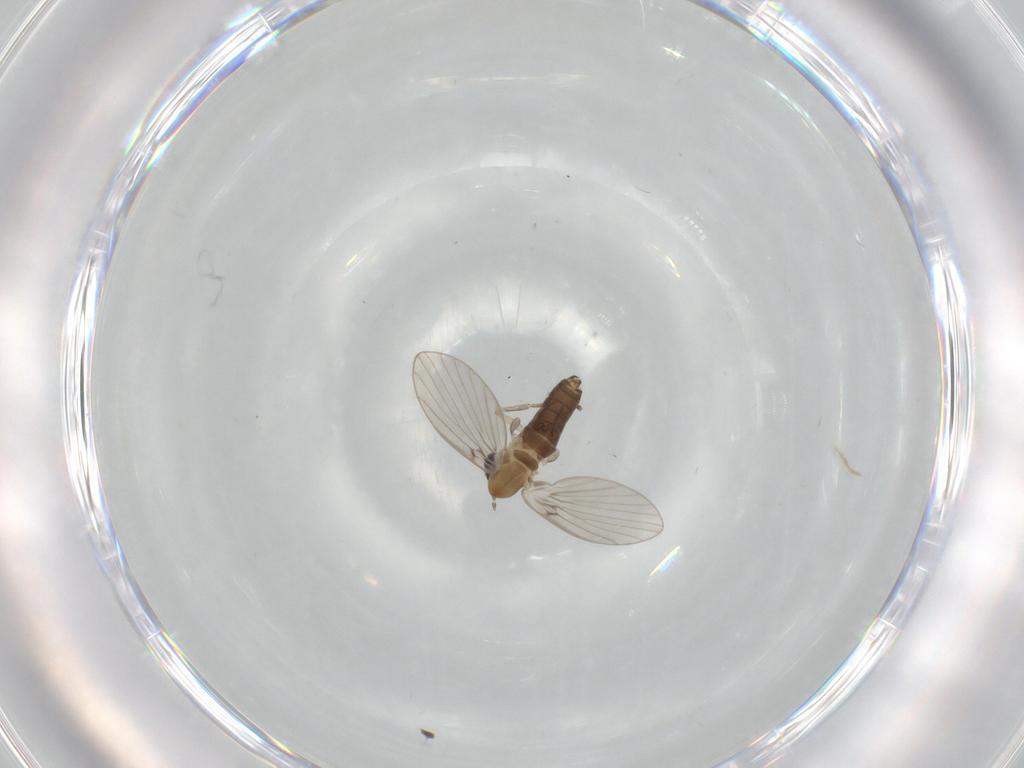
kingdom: Animalia
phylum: Arthropoda
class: Insecta
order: Diptera
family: Psychodidae
